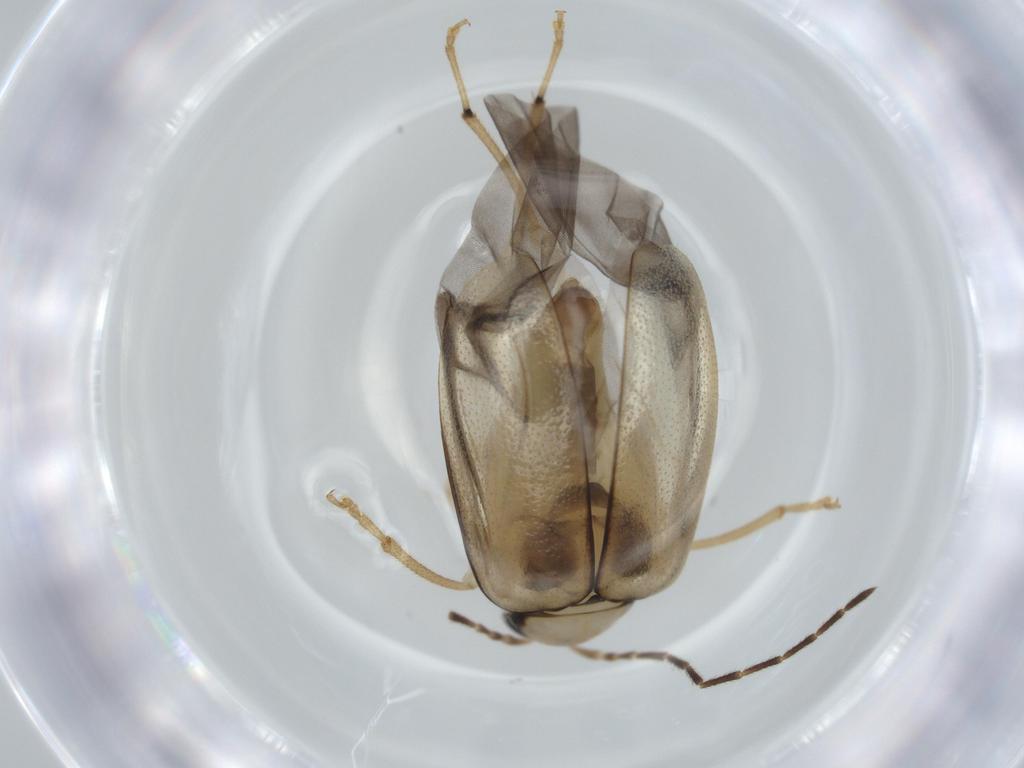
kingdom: Animalia
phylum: Arthropoda
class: Insecta
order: Coleoptera
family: Chrysomelidae
